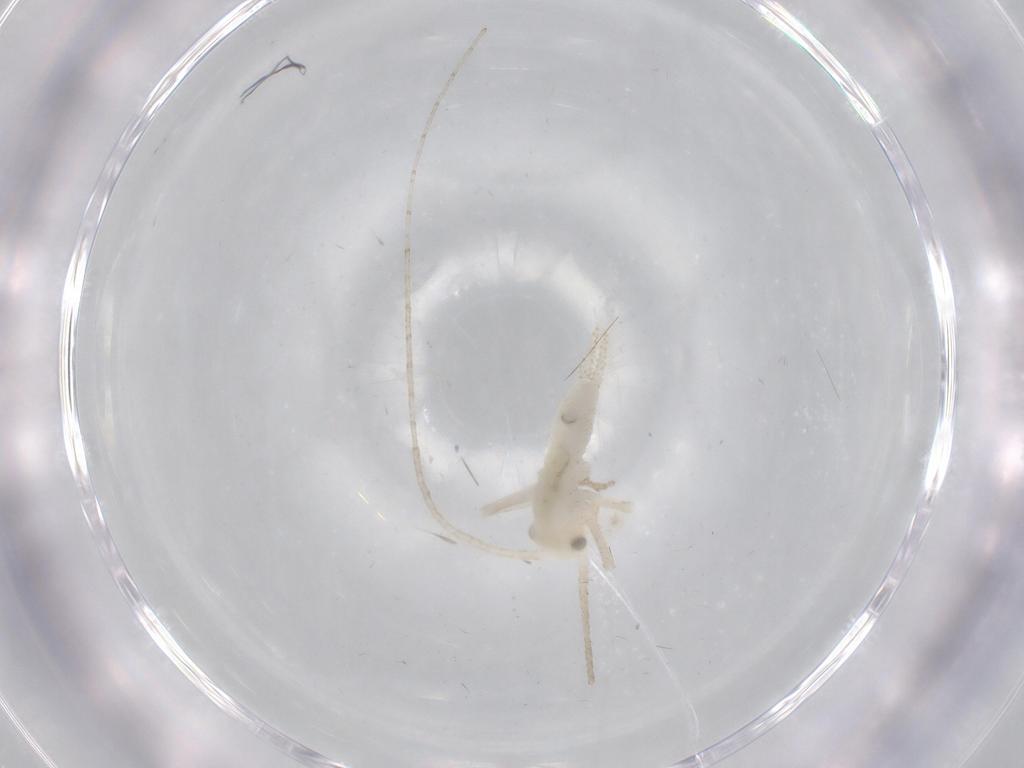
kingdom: Animalia
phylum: Arthropoda
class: Insecta
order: Orthoptera
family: Trigonidiidae
